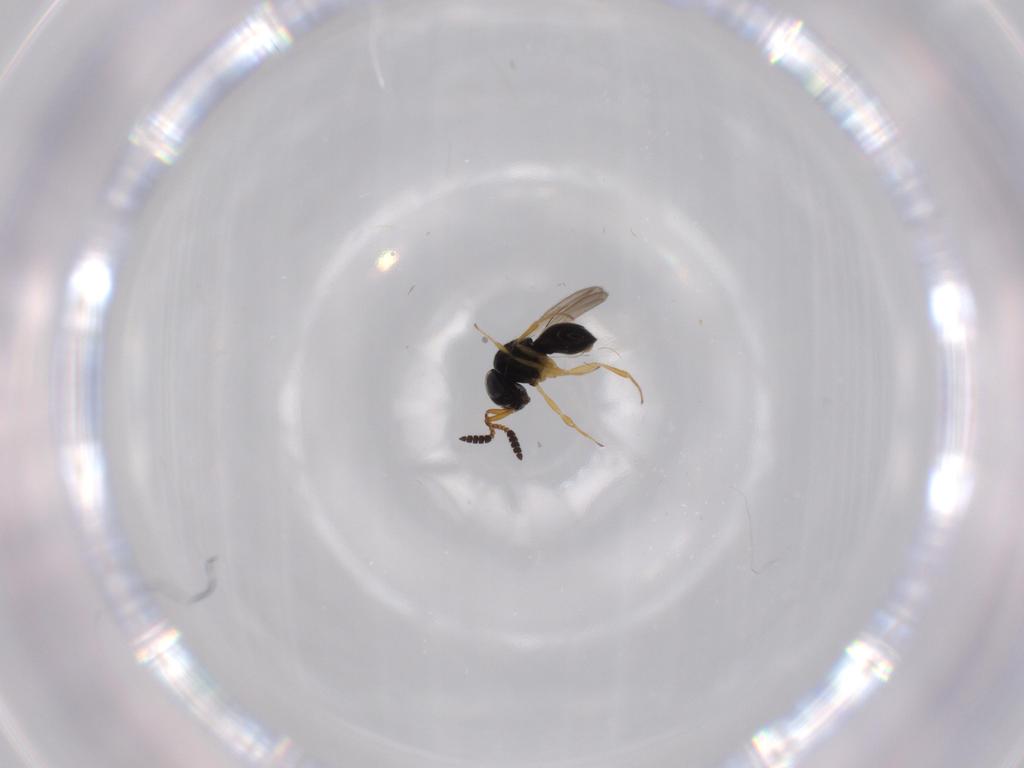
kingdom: Animalia
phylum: Arthropoda
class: Insecta
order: Hymenoptera
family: Scelionidae
